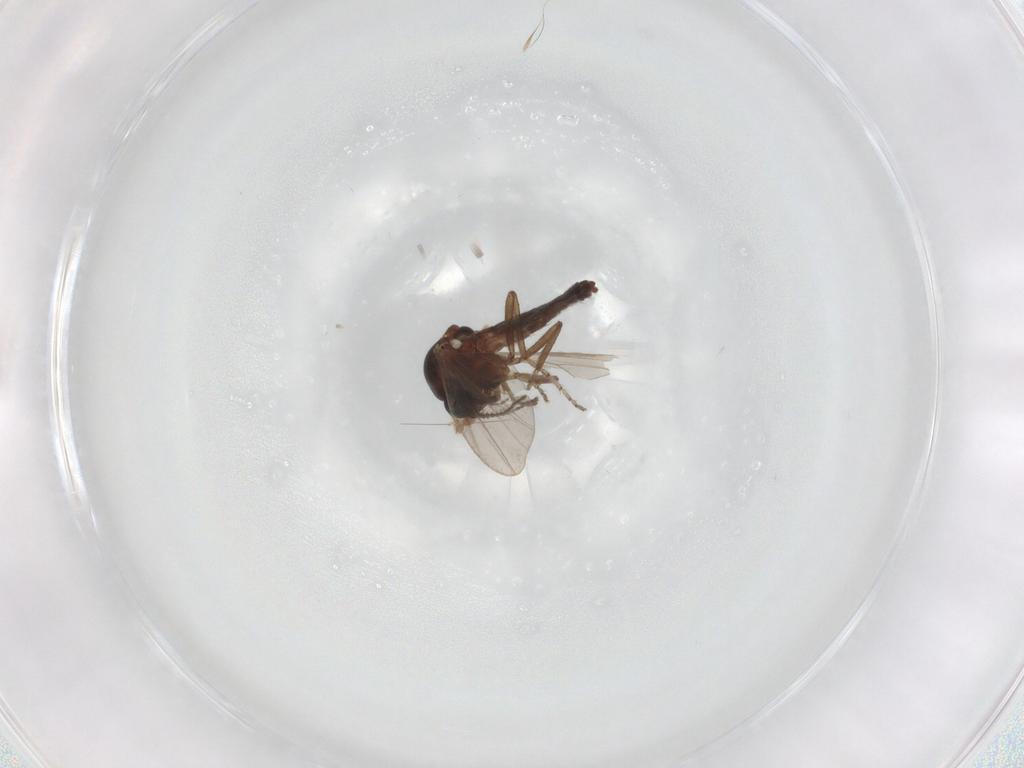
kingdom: Animalia
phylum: Arthropoda
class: Insecta
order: Diptera
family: Ceratopogonidae
